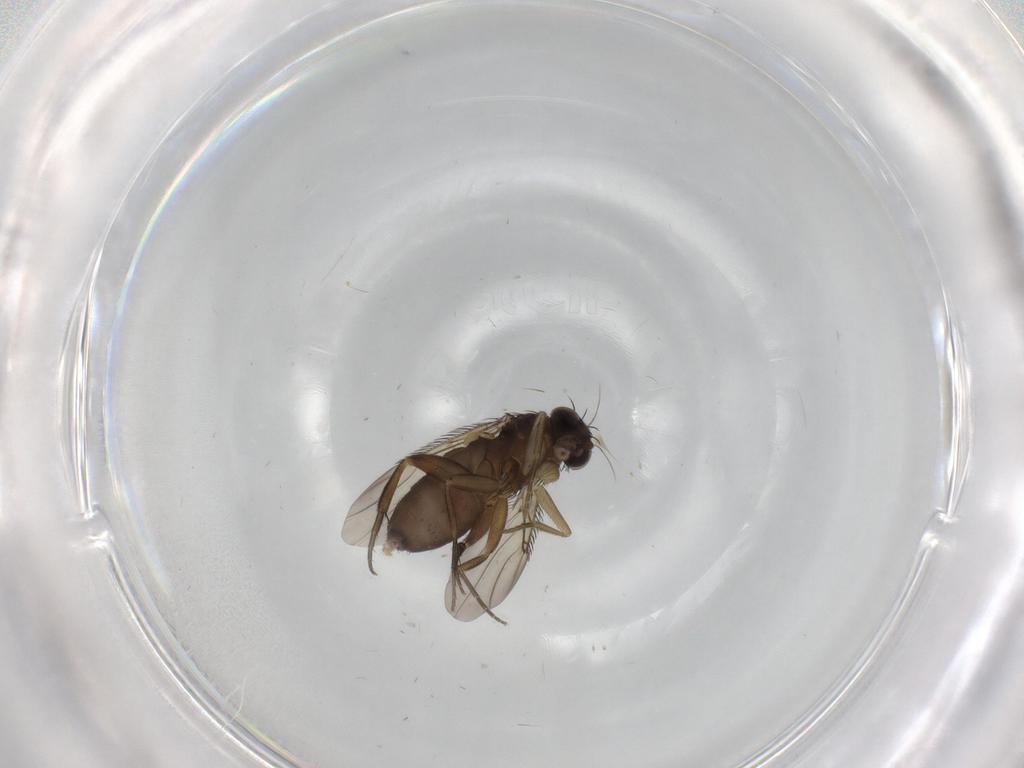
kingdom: Animalia
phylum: Arthropoda
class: Insecta
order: Diptera
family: Phoridae
